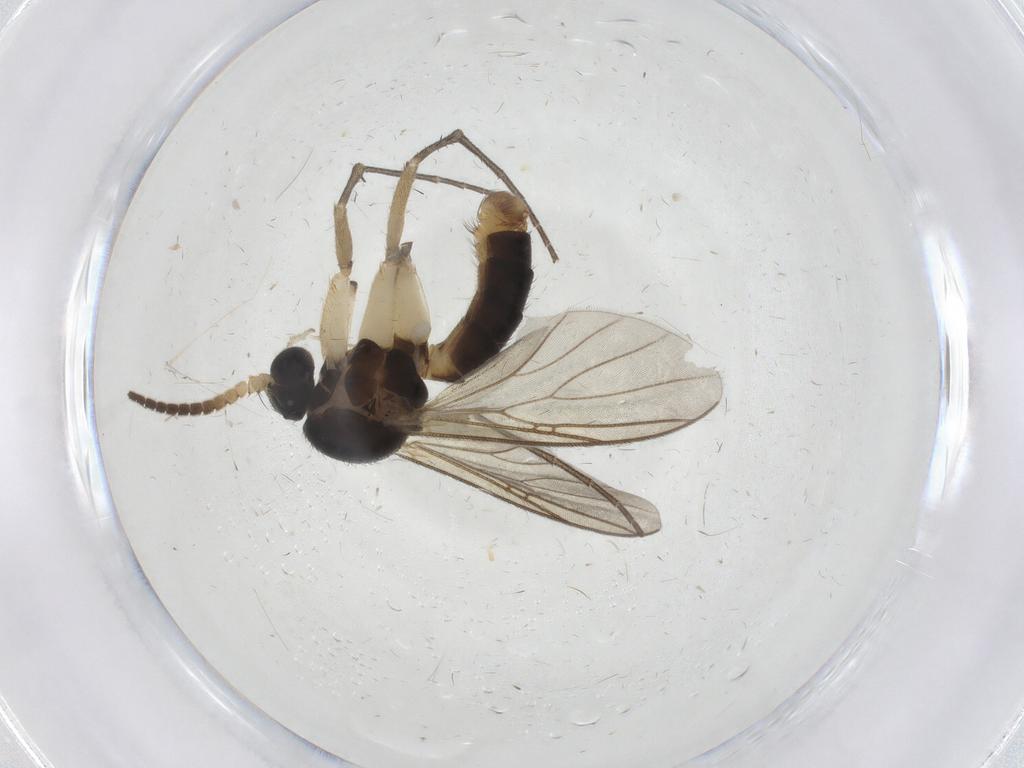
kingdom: Animalia
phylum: Arthropoda
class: Insecta
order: Diptera
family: Mycetophilidae
